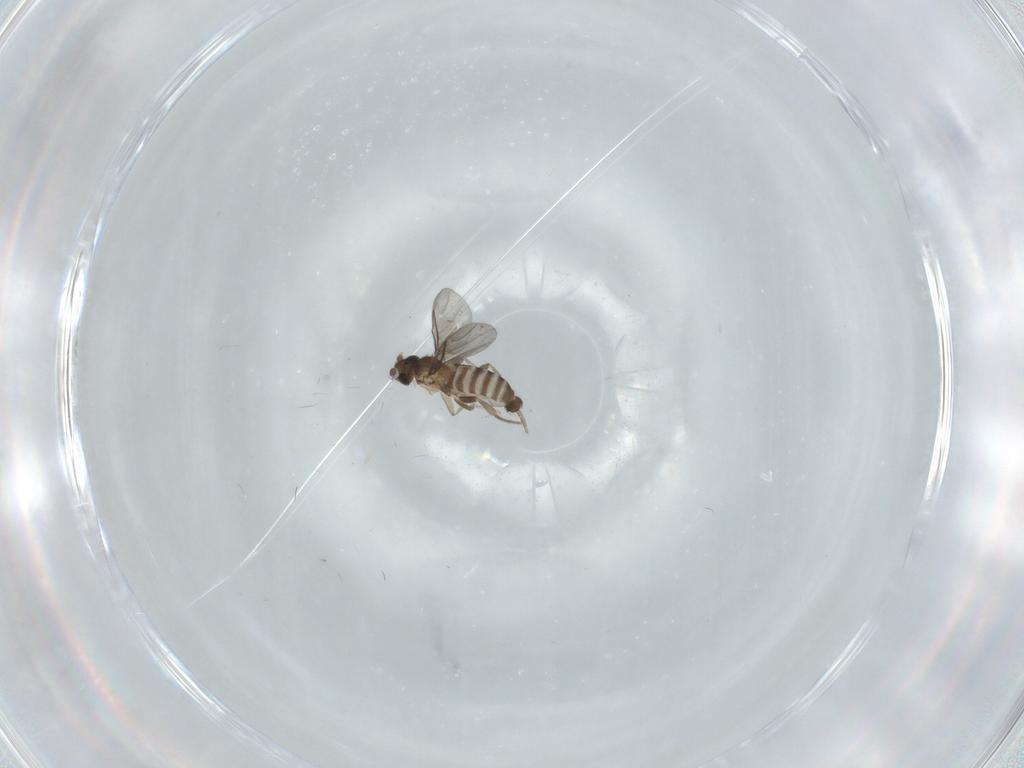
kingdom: Animalia
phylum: Arthropoda
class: Insecta
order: Diptera
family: Chironomidae
